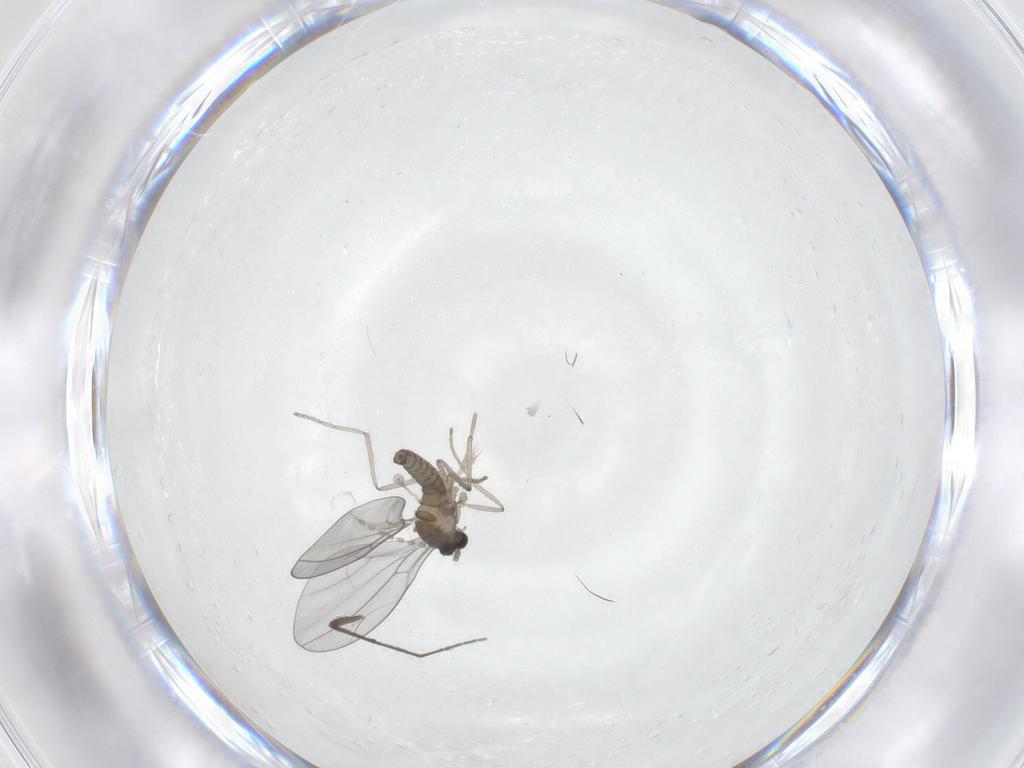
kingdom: Animalia
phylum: Arthropoda
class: Insecta
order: Diptera
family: Cecidomyiidae
